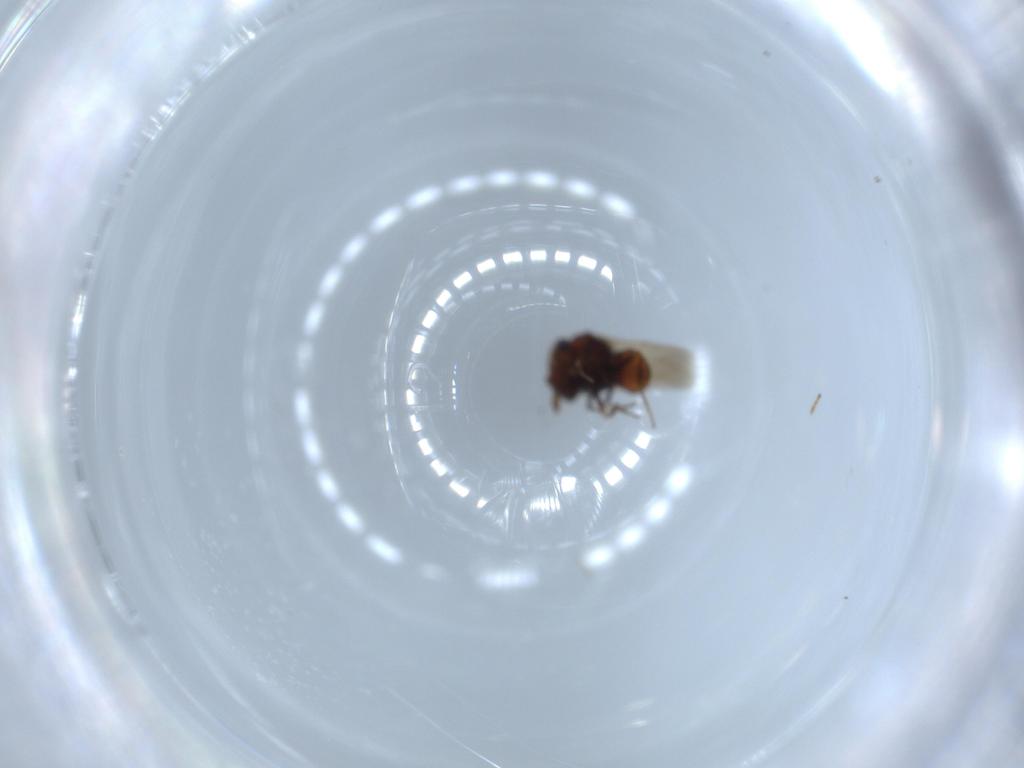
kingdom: Animalia
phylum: Arthropoda
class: Insecta
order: Hymenoptera
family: Scelionidae
